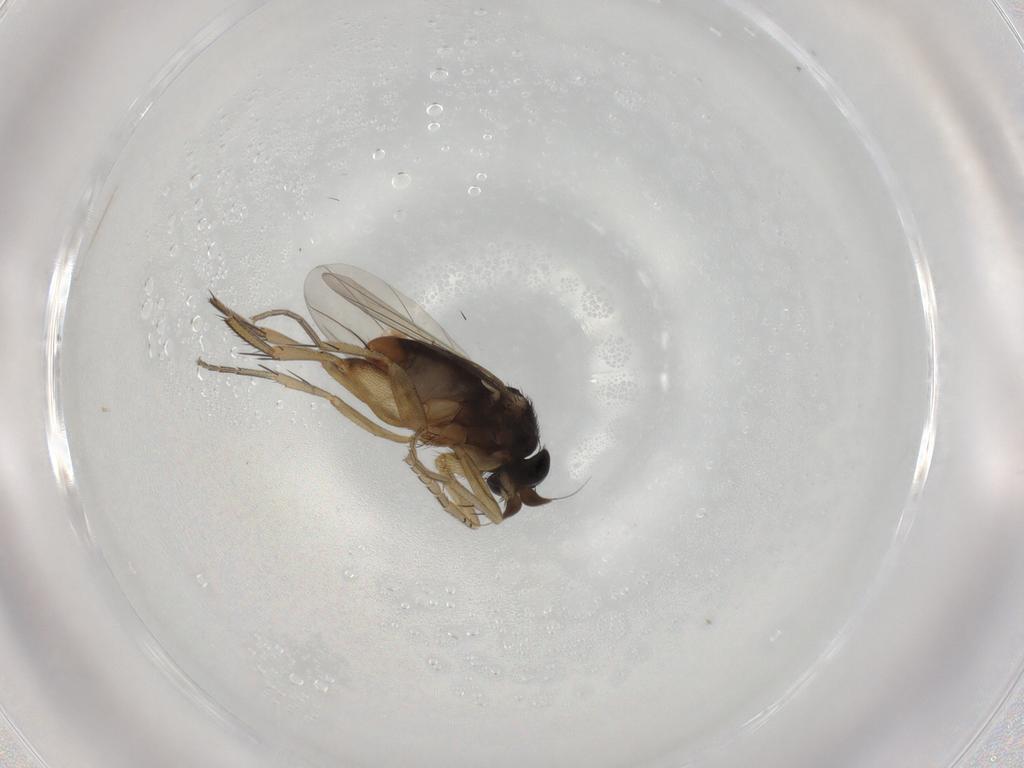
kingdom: Animalia
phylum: Arthropoda
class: Insecta
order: Diptera
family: Phoridae
